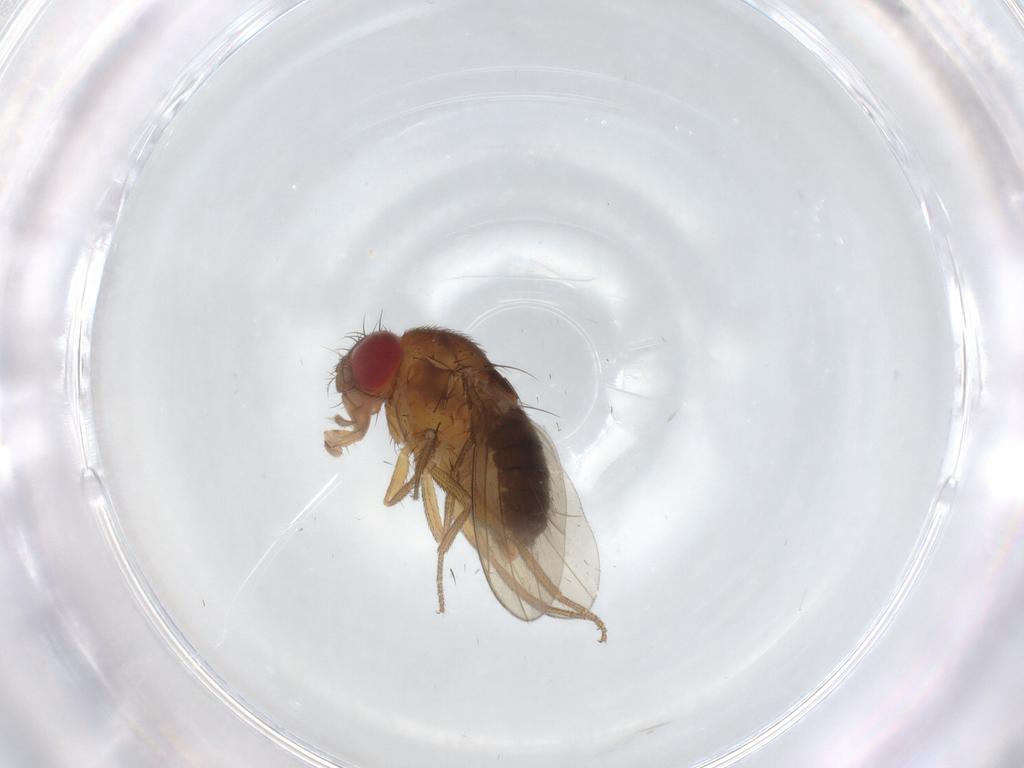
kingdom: Animalia
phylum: Arthropoda
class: Insecta
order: Diptera
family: Drosophilidae
